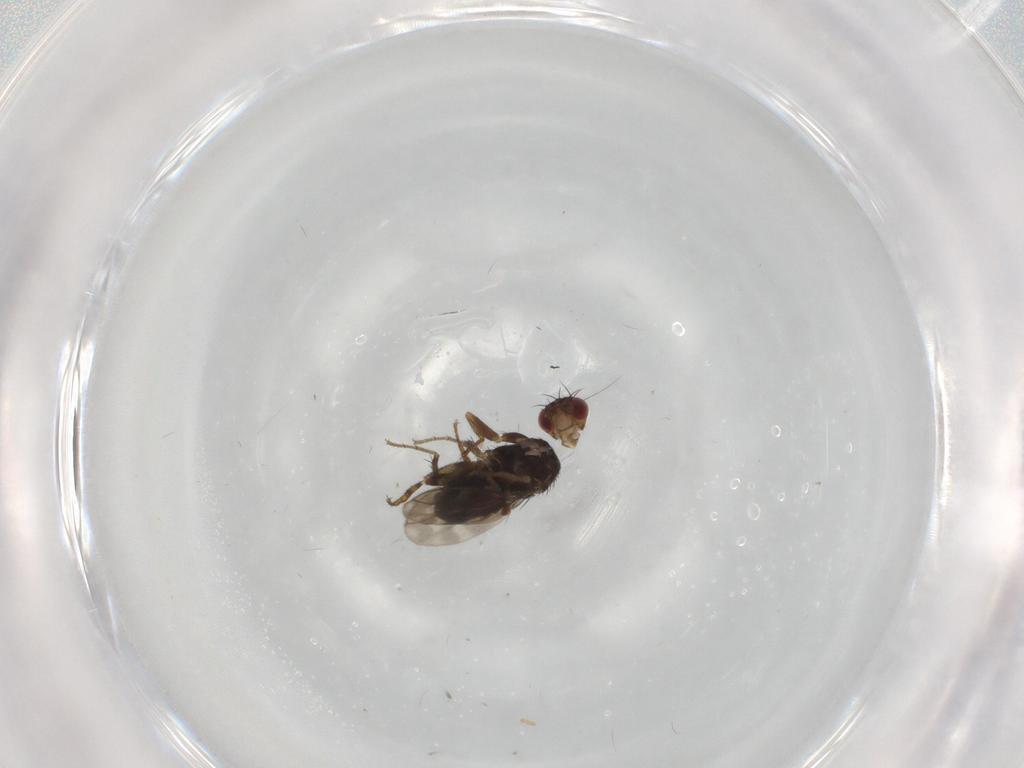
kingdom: Animalia
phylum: Arthropoda
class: Insecta
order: Diptera
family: Sphaeroceridae
